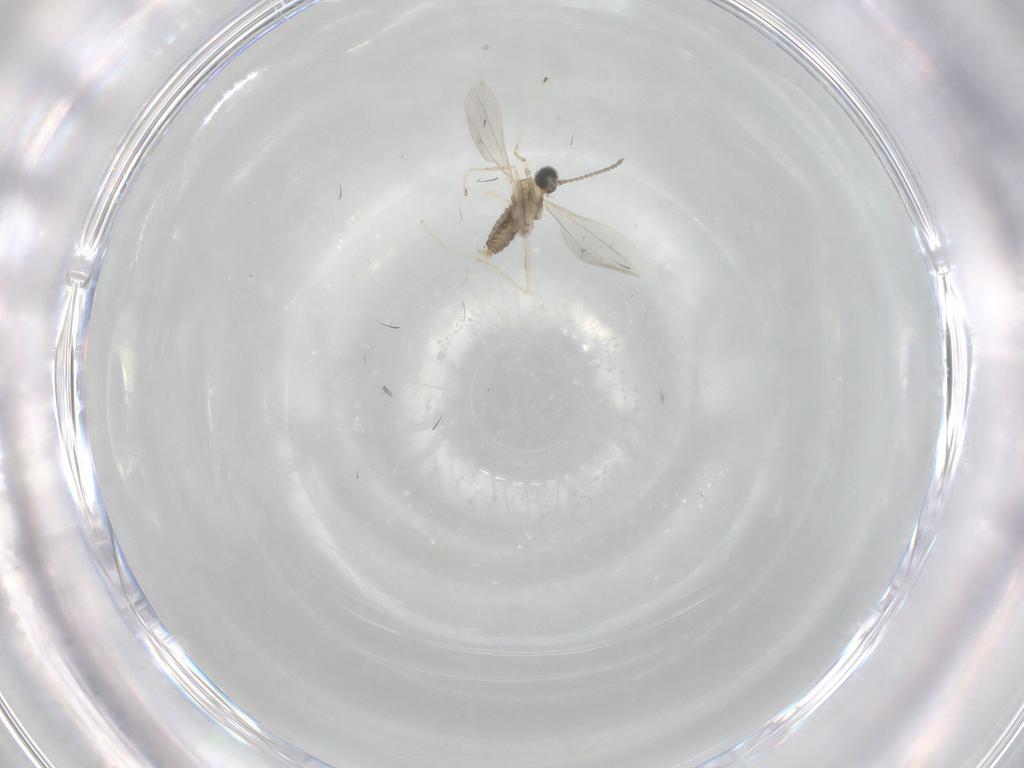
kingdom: Animalia
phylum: Arthropoda
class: Insecta
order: Diptera
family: Cecidomyiidae
